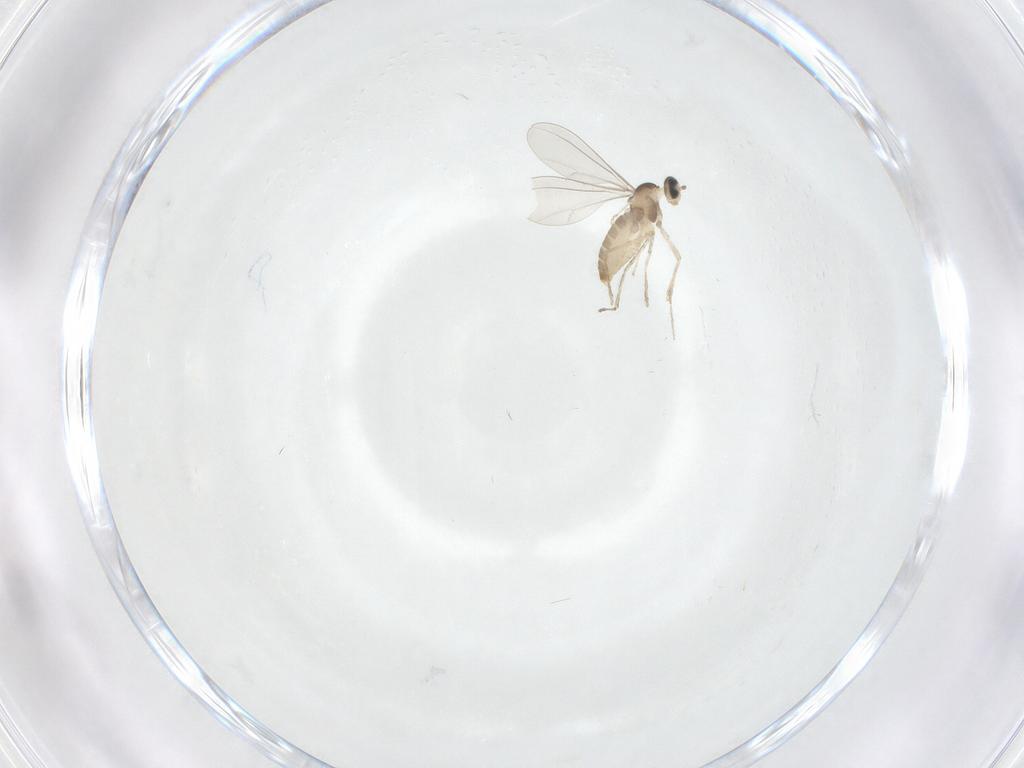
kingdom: Animalia
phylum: Arthropoda
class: Insecta
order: Diptera
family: Cecidomyiidae
